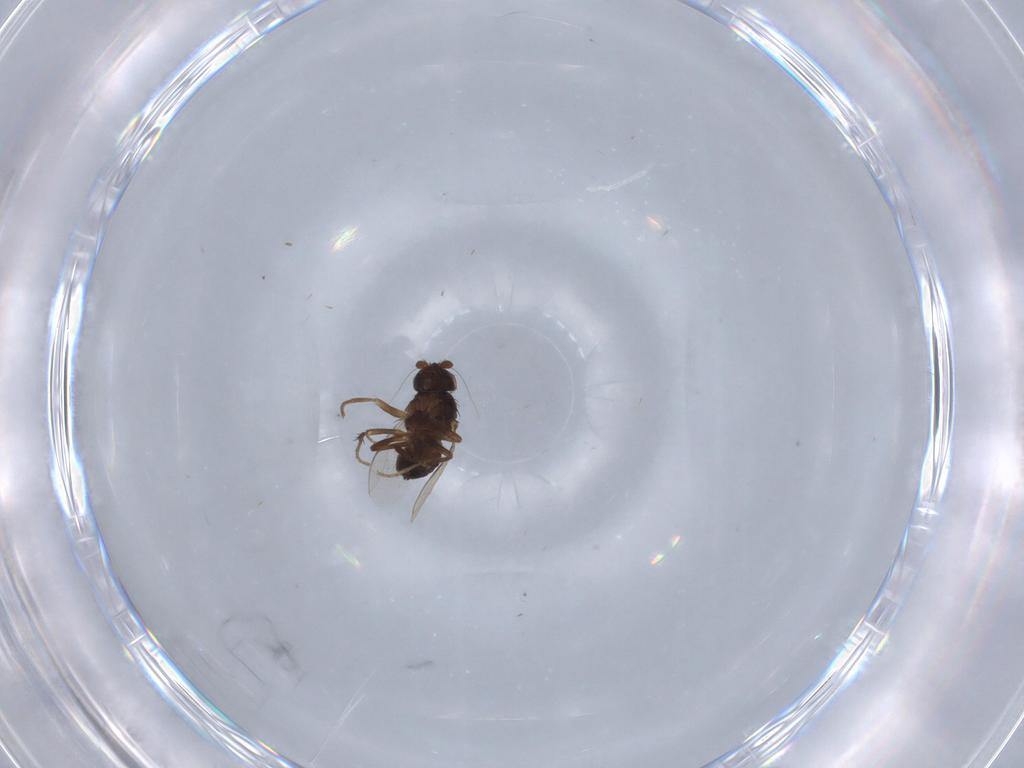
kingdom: Animalia
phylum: Arthropoda
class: Insecta
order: Diptera
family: Sphaeroceridae
